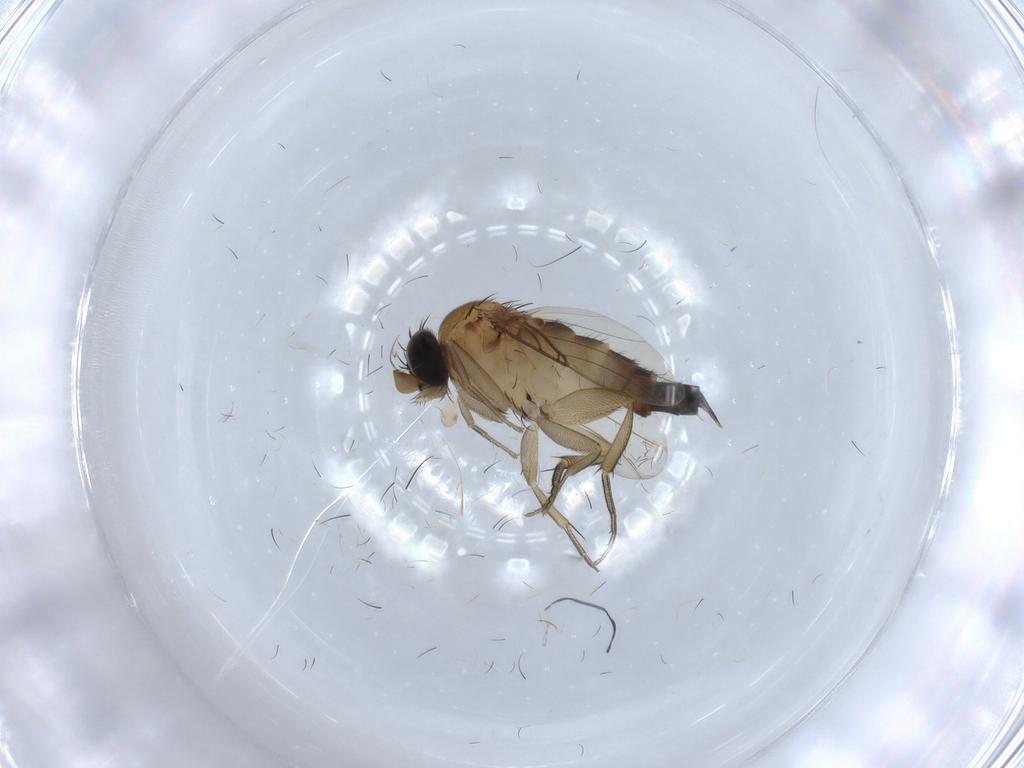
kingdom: Animalia
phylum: Arthropoda
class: Insecta
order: Diptera
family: Phoridae
